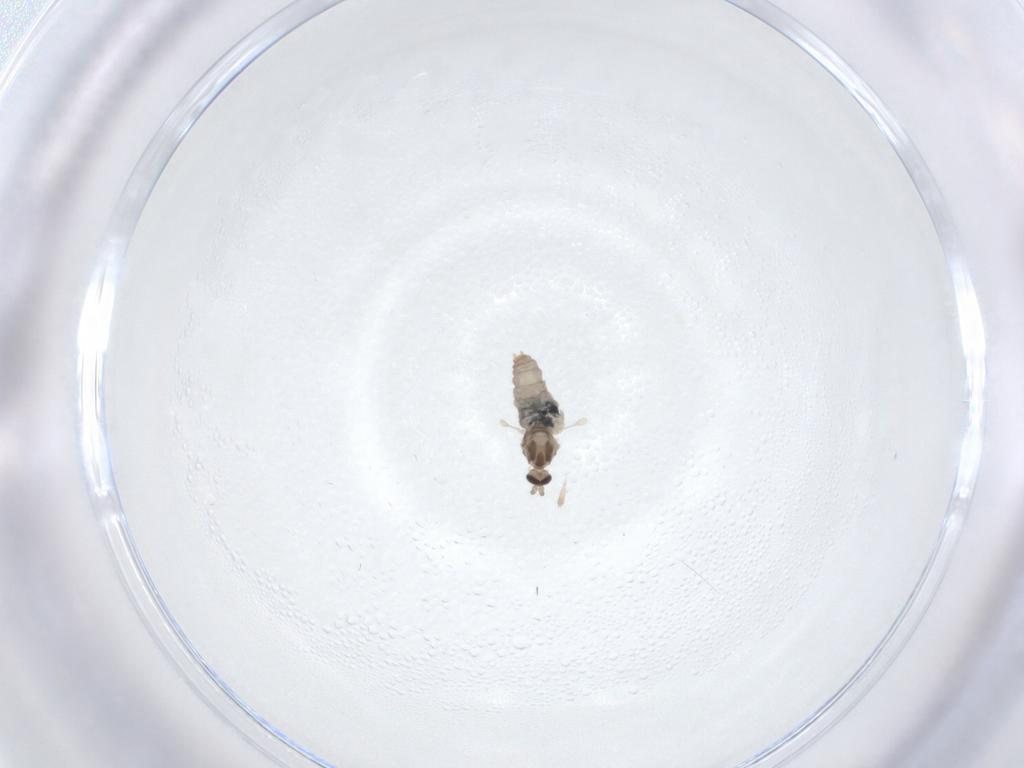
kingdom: Animalia
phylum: Arthropoda
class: Insecta
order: Diptera
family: Cecidomyiidae
